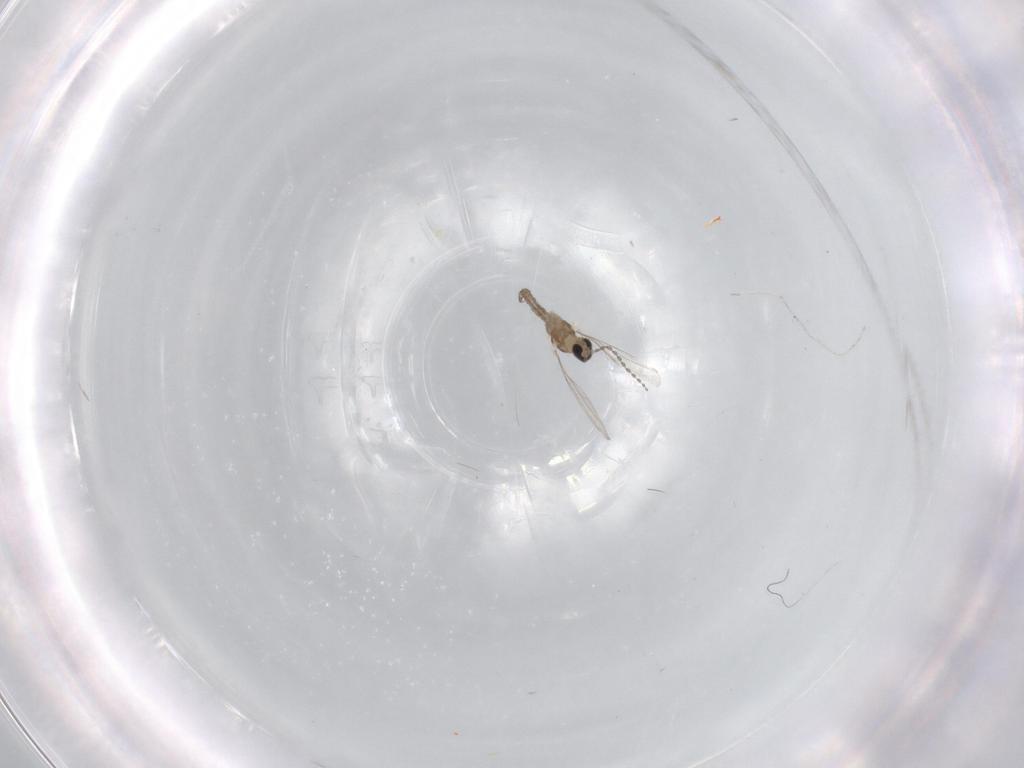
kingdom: Animalia
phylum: Arthropoda
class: Insecta
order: Diptera
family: Cecidomyiidae
